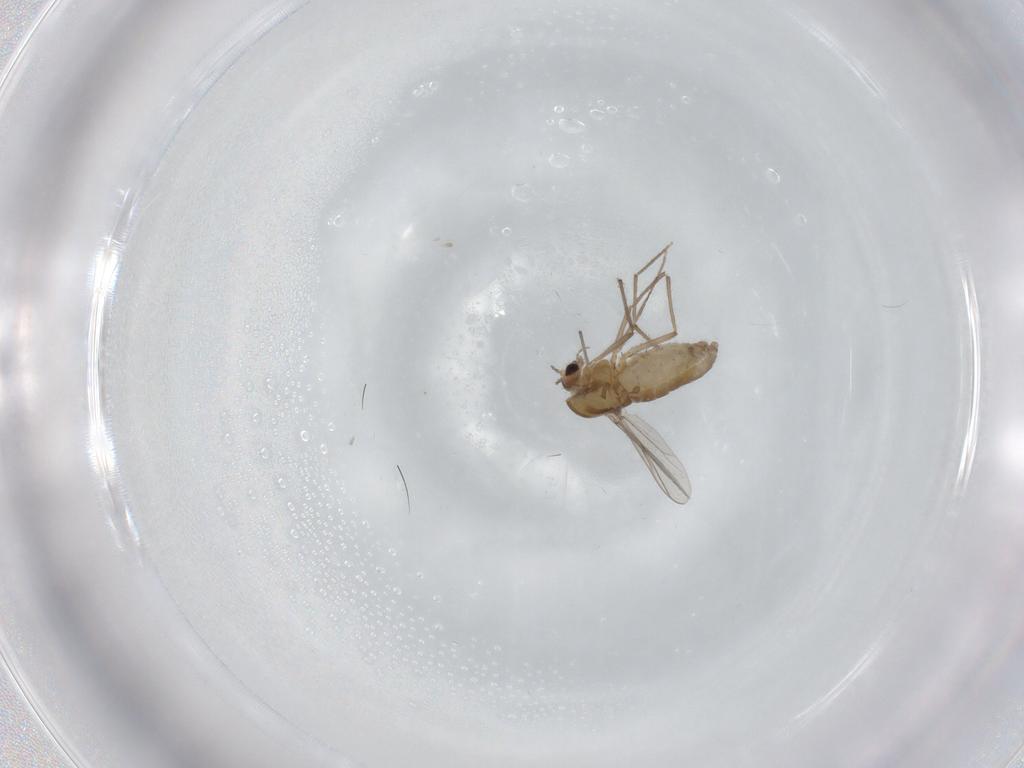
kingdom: Animalia
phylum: Arthropoda
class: Insecta
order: Diptera
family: Chironomidae
